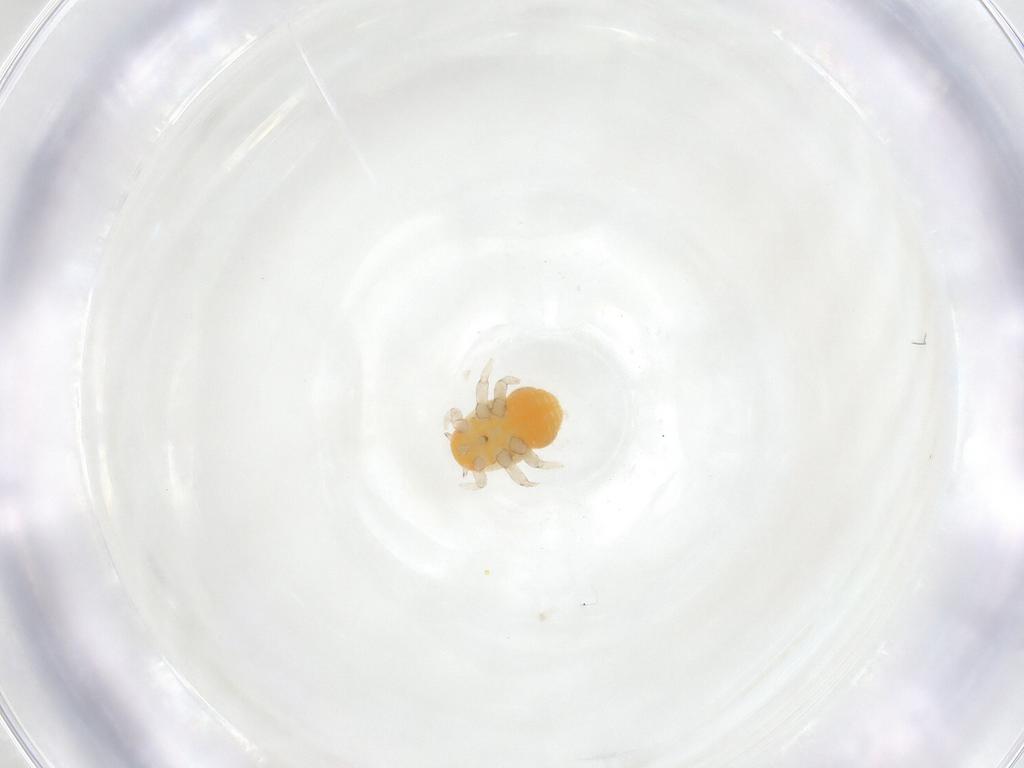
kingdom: Animalia
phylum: Arthropoda
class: Insecta
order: Hemiptera
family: Triozidae
